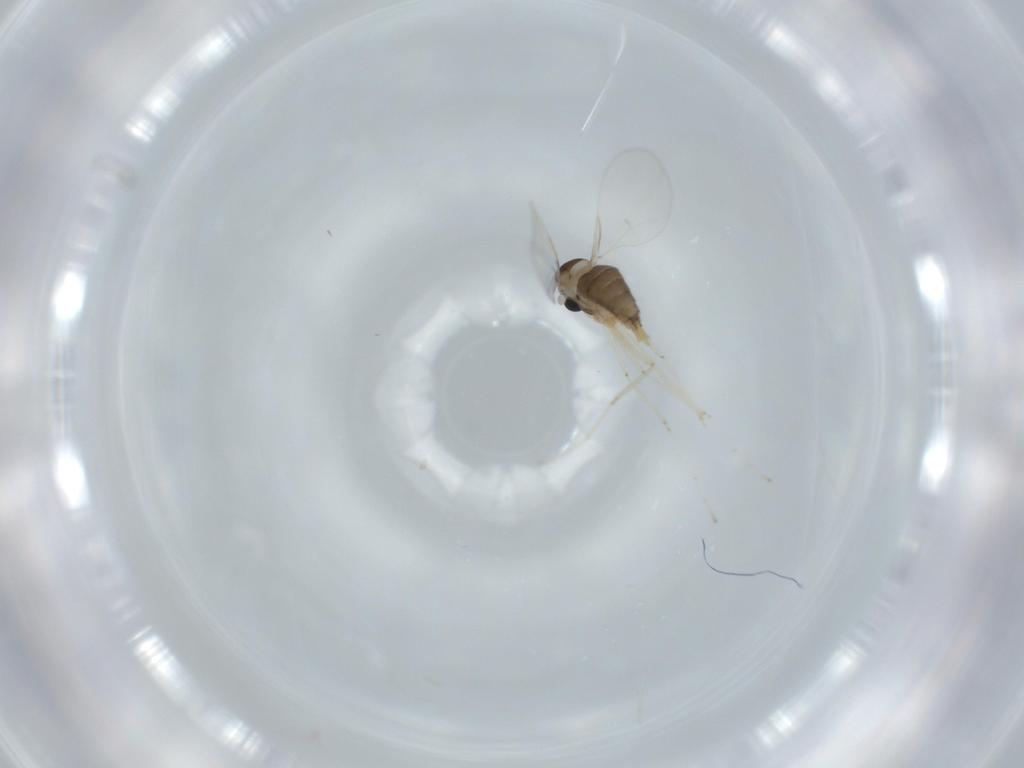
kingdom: Animalia
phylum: Arthropoda
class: Insecta
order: Diptera
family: Cecidomyiidae
